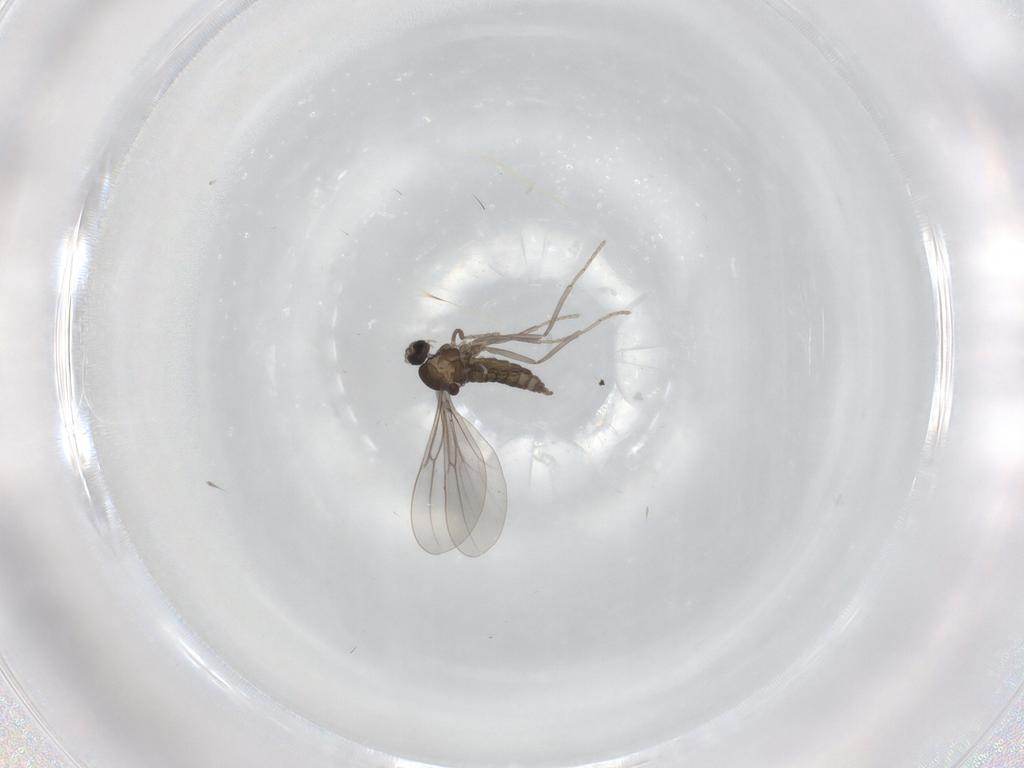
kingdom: Animalia
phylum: Arthropoda
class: Insecta
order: Diptera
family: Sciaridae
